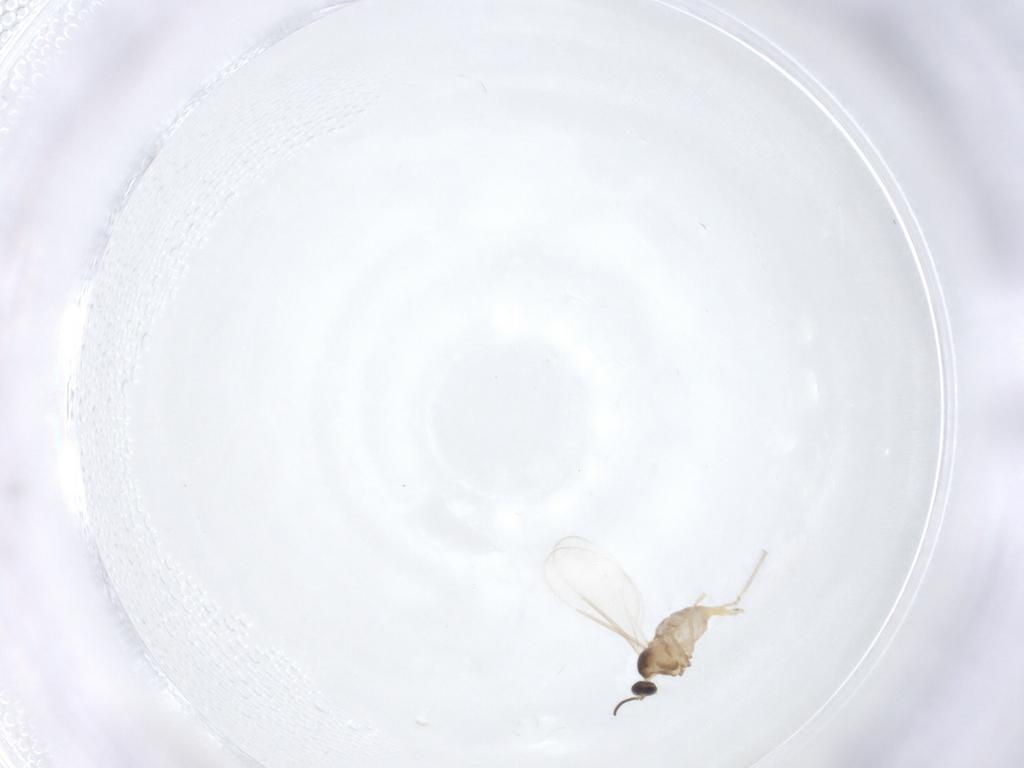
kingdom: Animalia
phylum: Arthropoda
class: Insecta
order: Diptera
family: Cecidomyiidae
